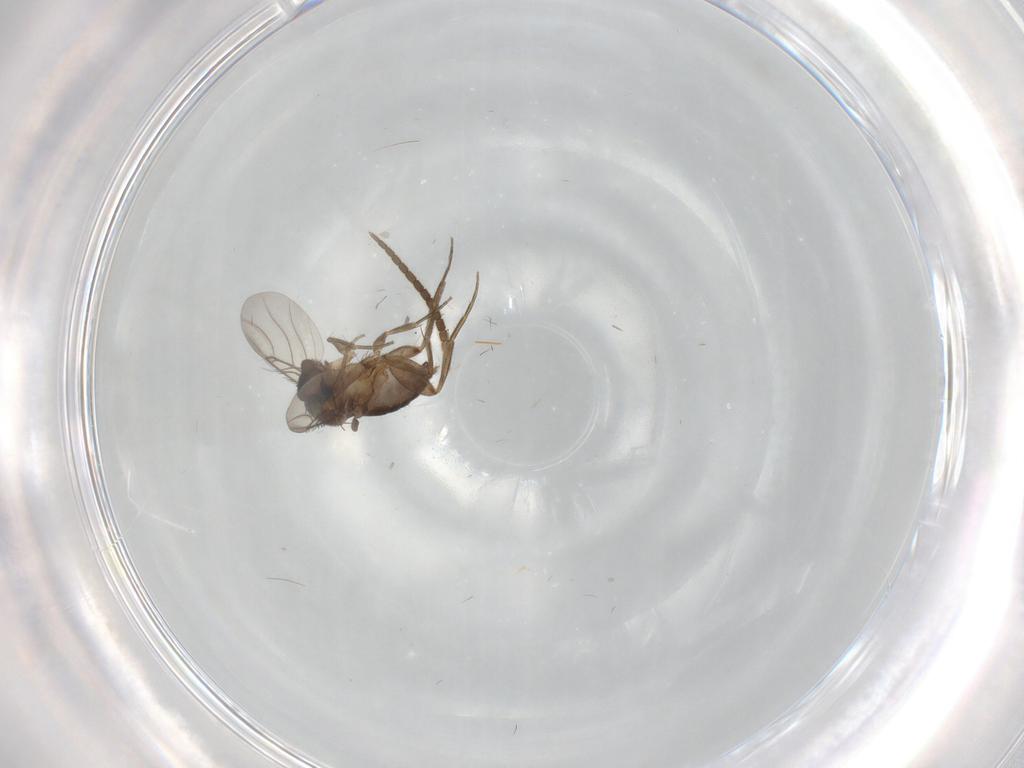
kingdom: Animalia
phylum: Arthropoda
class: Insecta
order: Diptera
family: Phoridae
